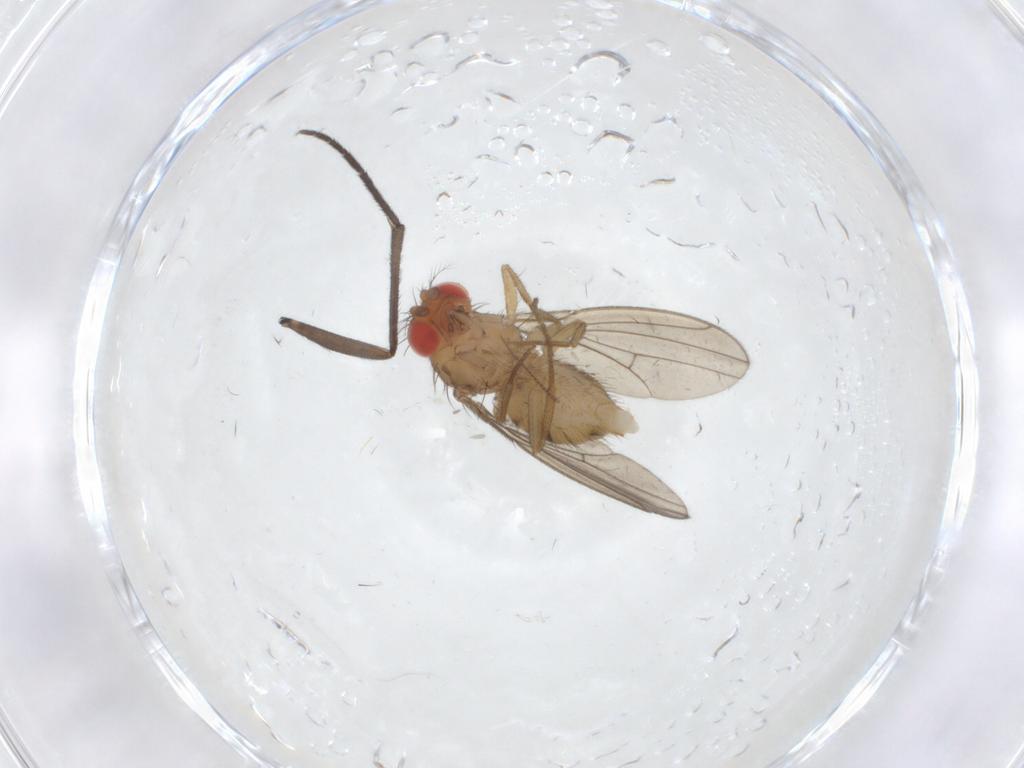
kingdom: Animalia
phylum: Arthropoda
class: Insecta
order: Diptera
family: Drosophilidae
